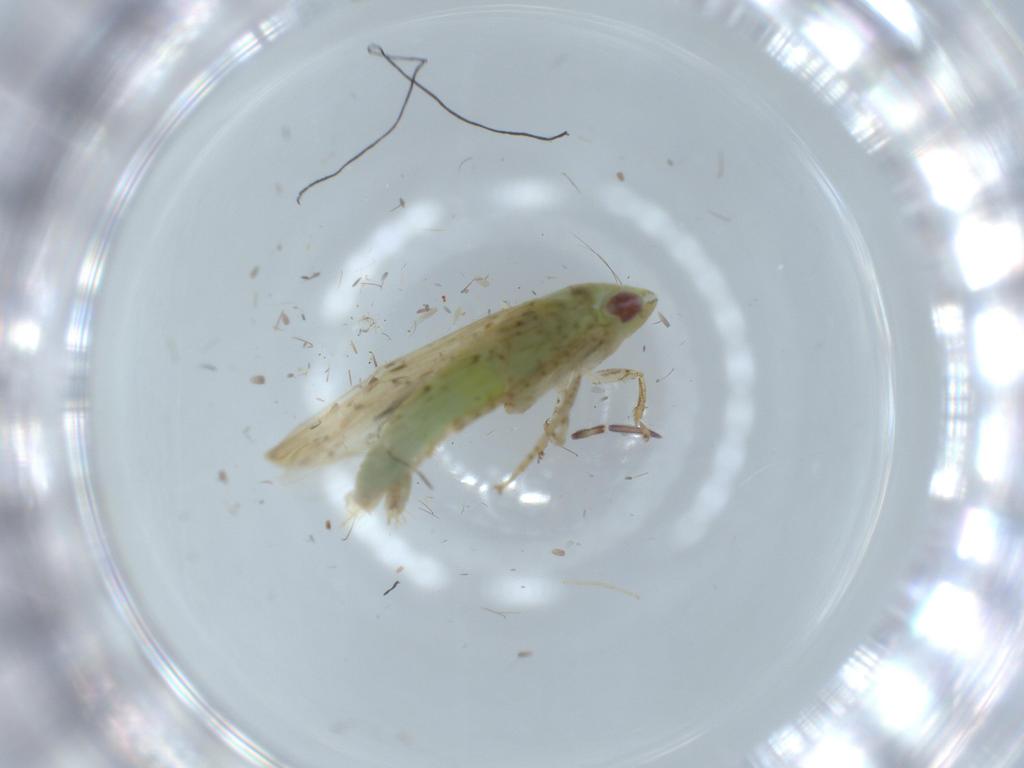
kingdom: Animalia
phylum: Arthropoda
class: Insecta
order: Hemiptera
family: Cicadellidae
